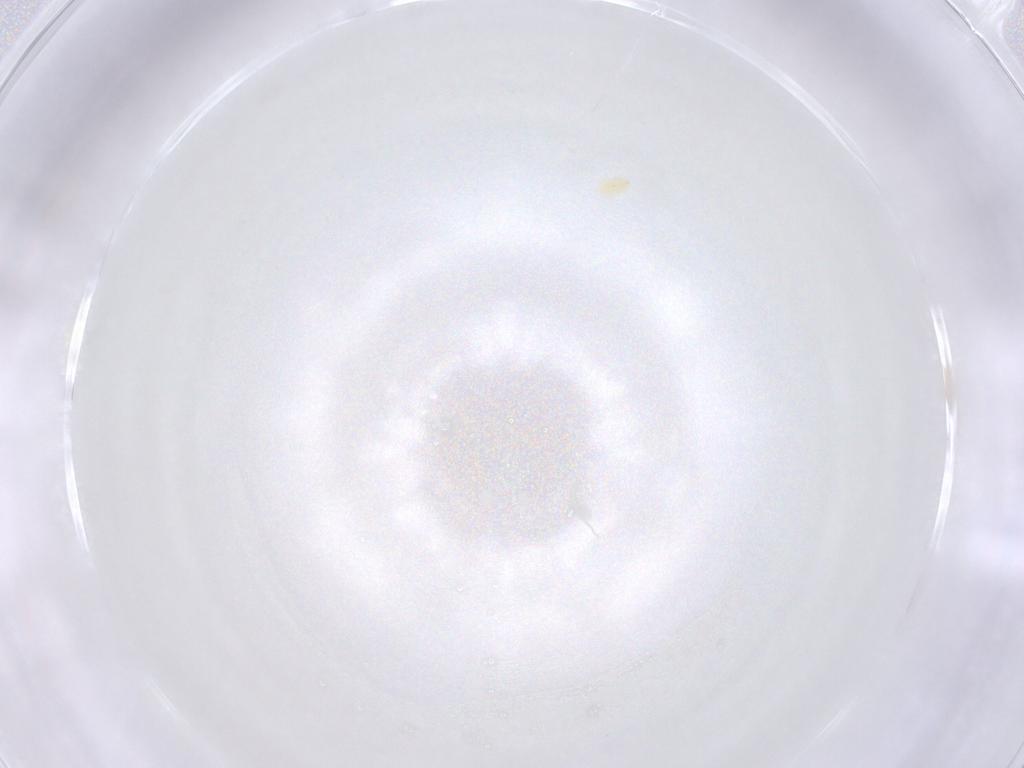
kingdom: Animalia
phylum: Arthropoda
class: Arachnida
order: Trombidiformes
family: Tetranychidae
